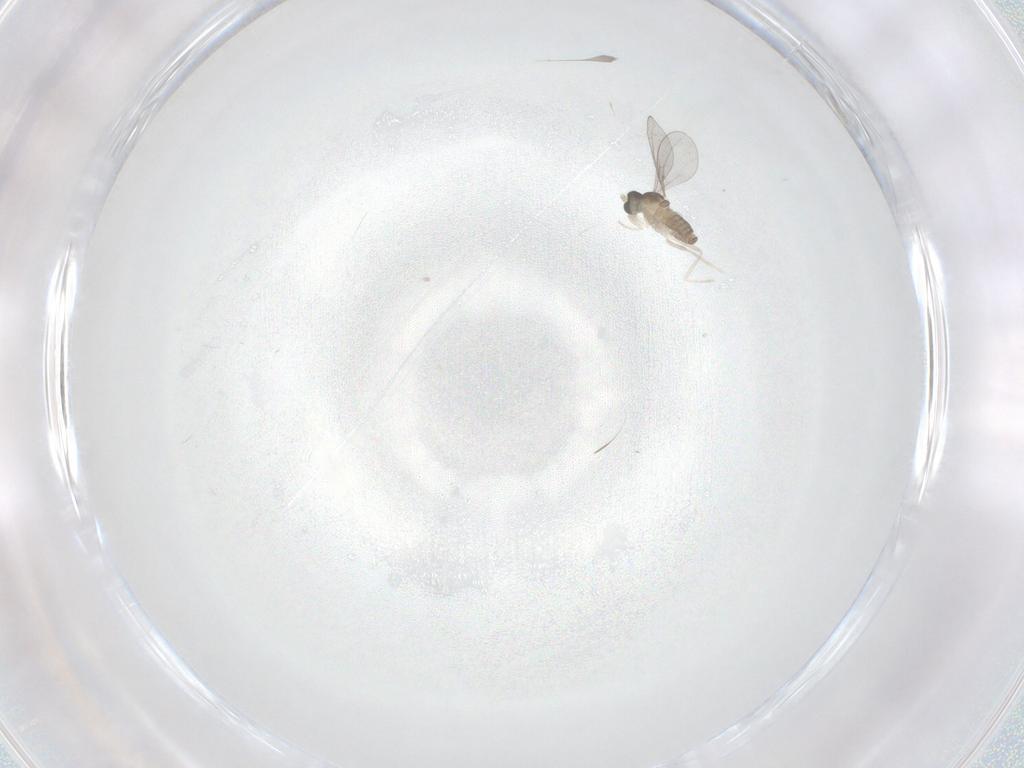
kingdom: Animalia
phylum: Arthropoda
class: Insecta
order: Diptera
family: Cecidomyiidae
